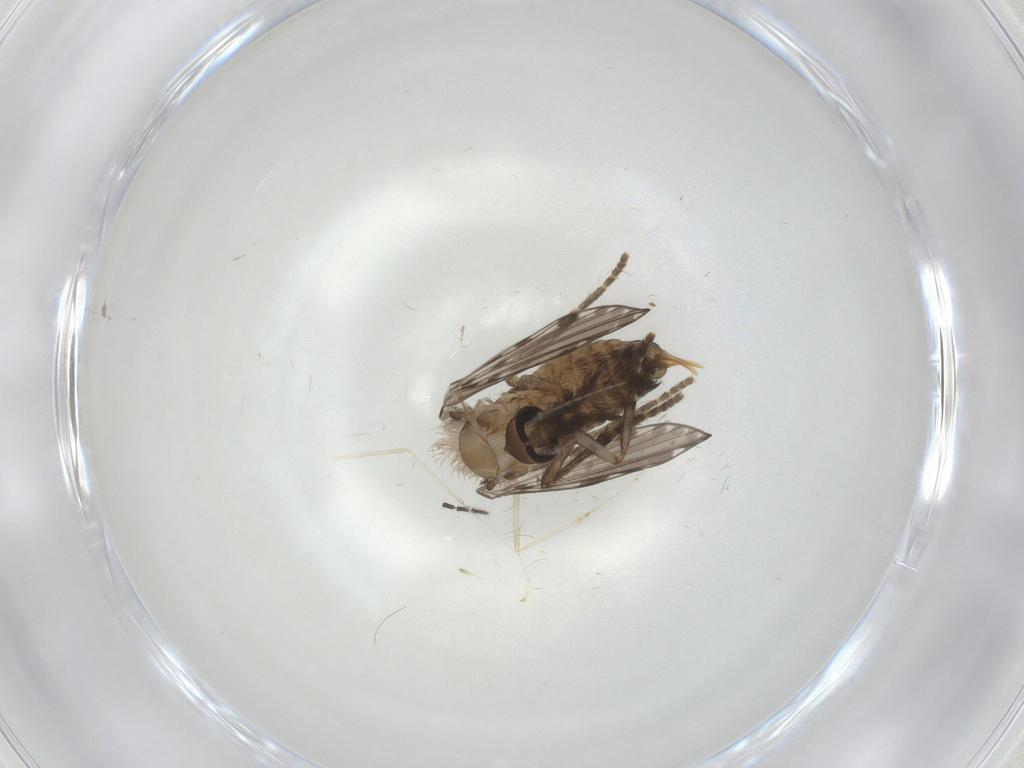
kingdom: Animalia
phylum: Arthropoda
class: Insecta
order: Diptera
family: Psychodidae
